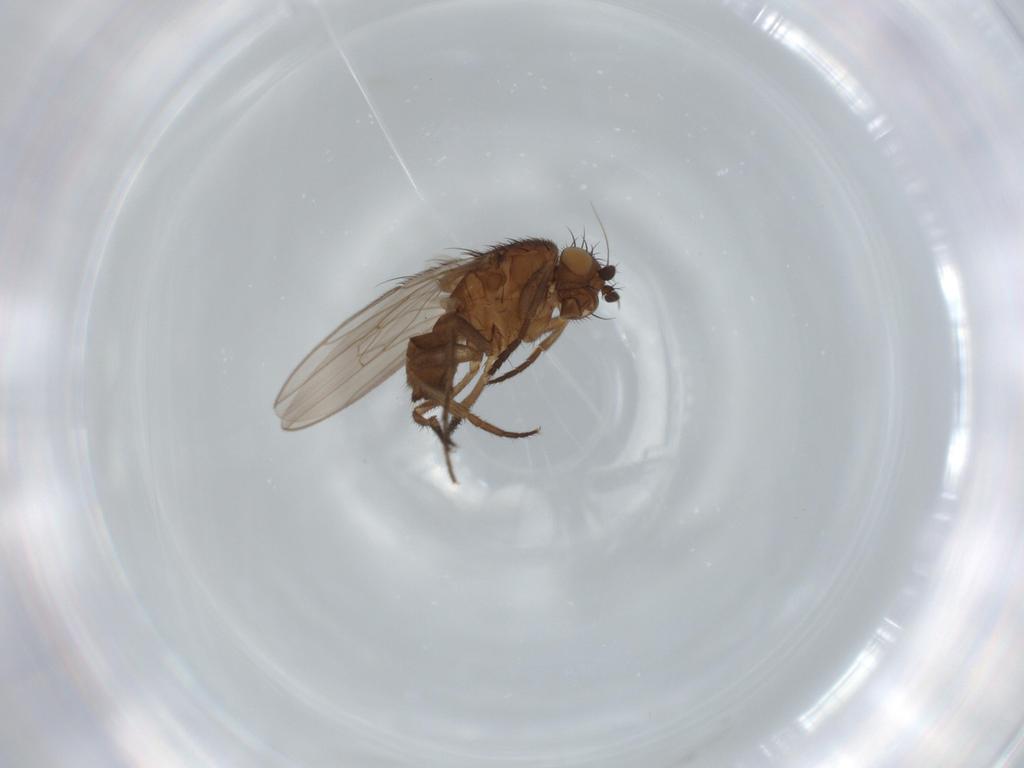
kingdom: Animalia
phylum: Arthropoda
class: Insecta
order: Diptera
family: Sphaeroceridae
